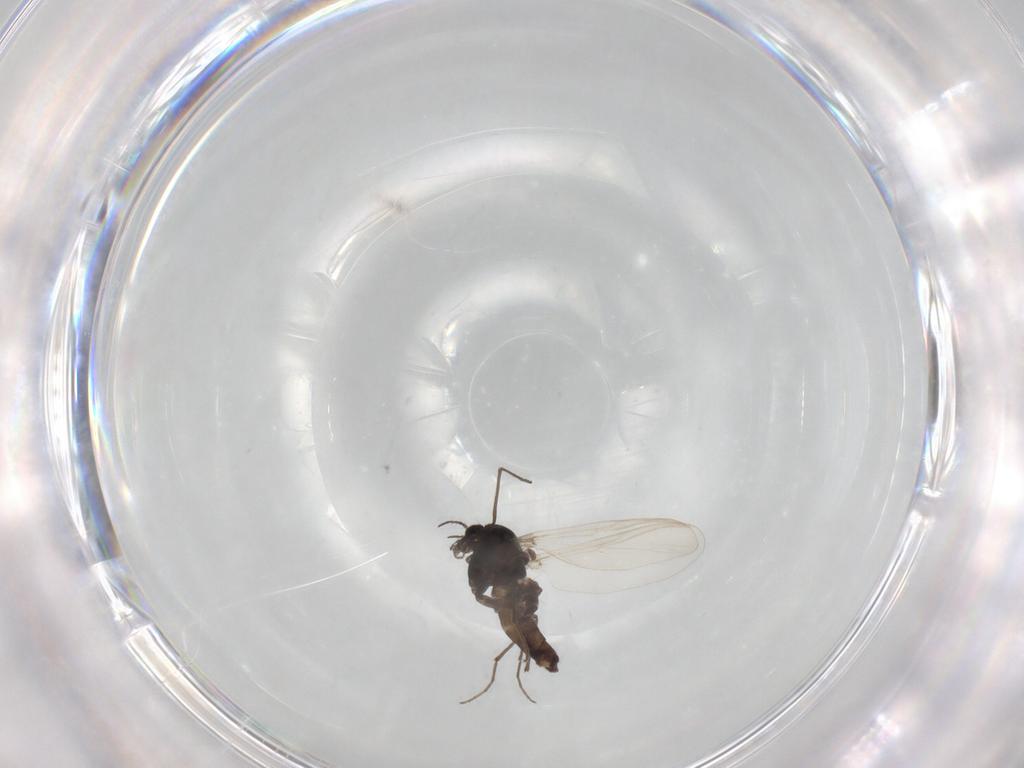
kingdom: Animalia
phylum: Arthropoda
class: Insecta
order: Diptera
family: Chironomidae
